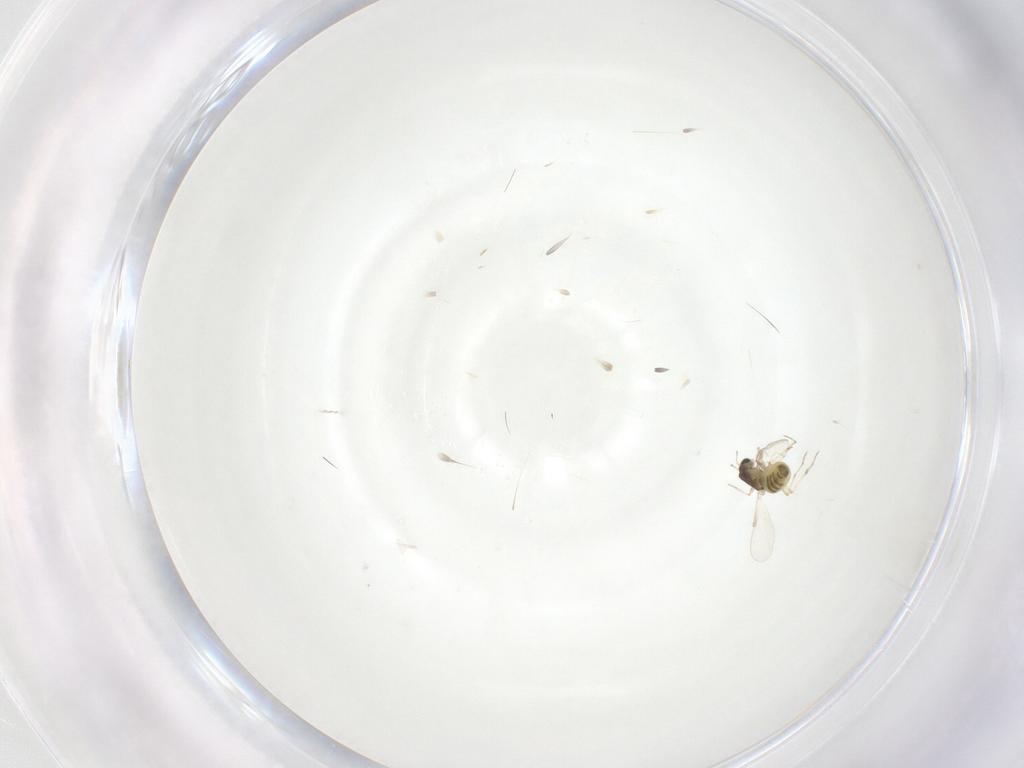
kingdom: Animalia
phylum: Arthropoda
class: Insecta
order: Diptera
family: Chironomidae
